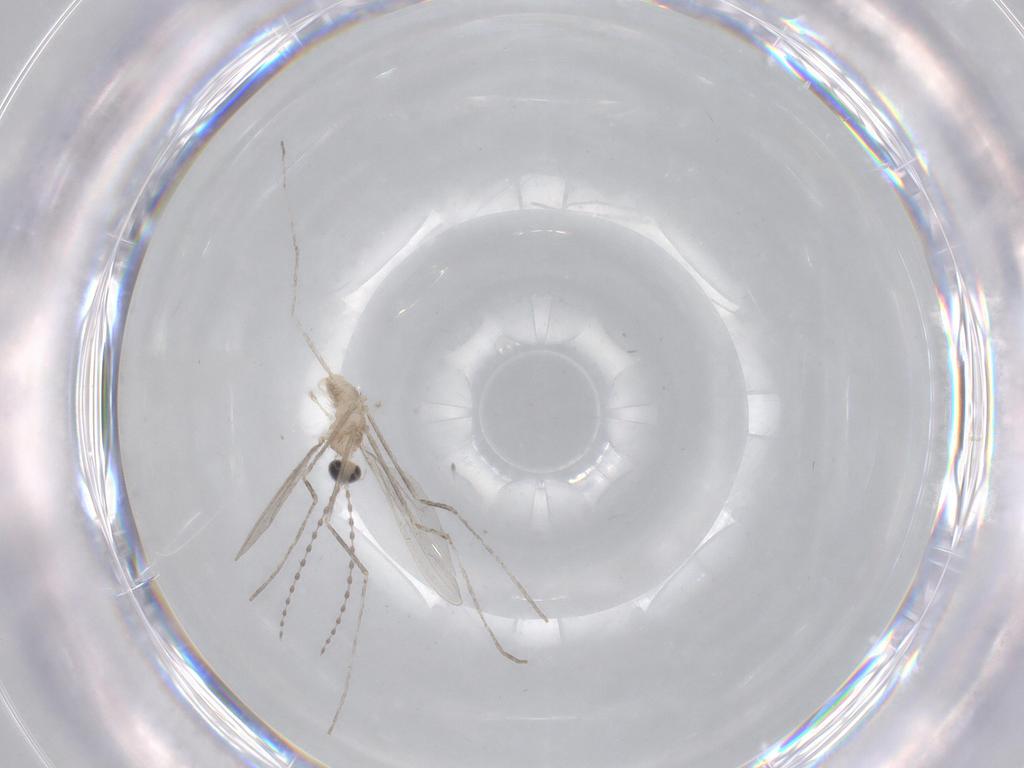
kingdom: Animalia
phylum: Arthropoda
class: Insecta
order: Diptera
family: Cecidomyiidae
